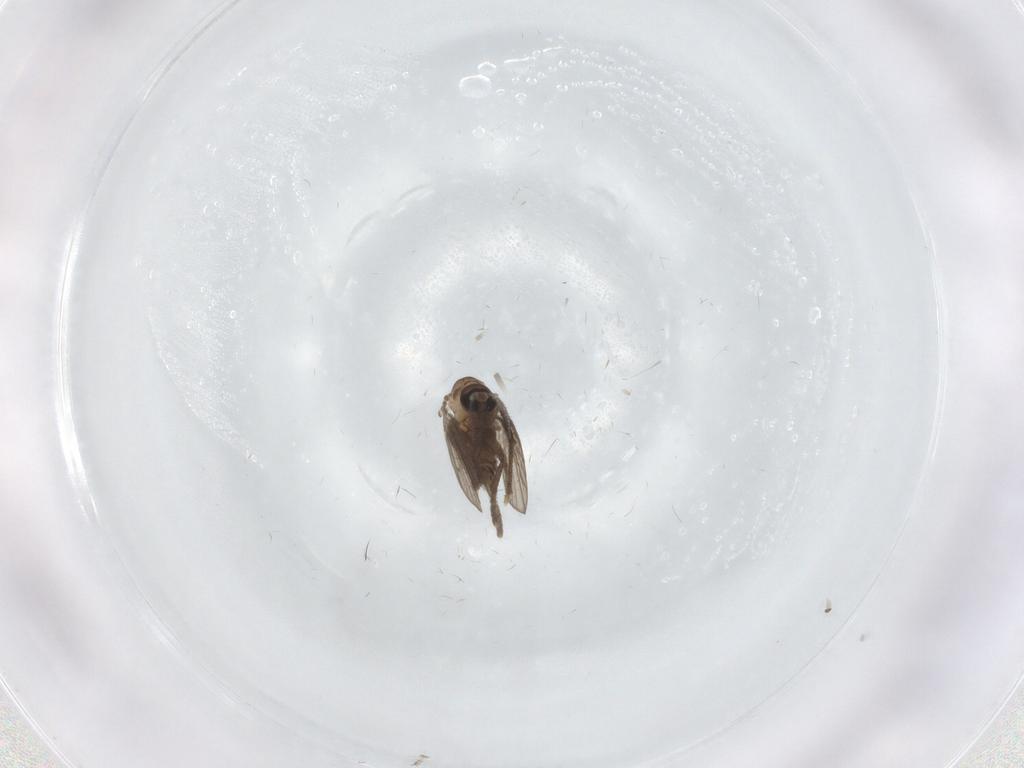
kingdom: Animalia
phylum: Arthropoda
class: Insecta
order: Diptera
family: Psychodidae
